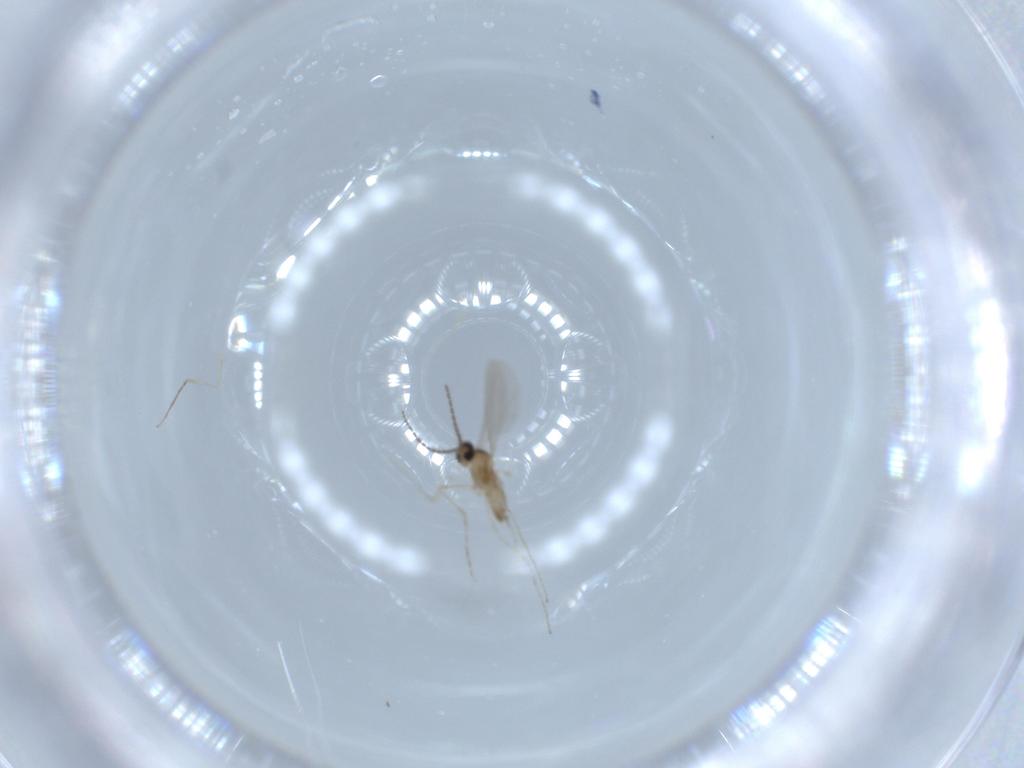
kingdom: Animalia
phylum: Arthropoda
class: Insecta
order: Diptera
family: Cecidomyiidae
